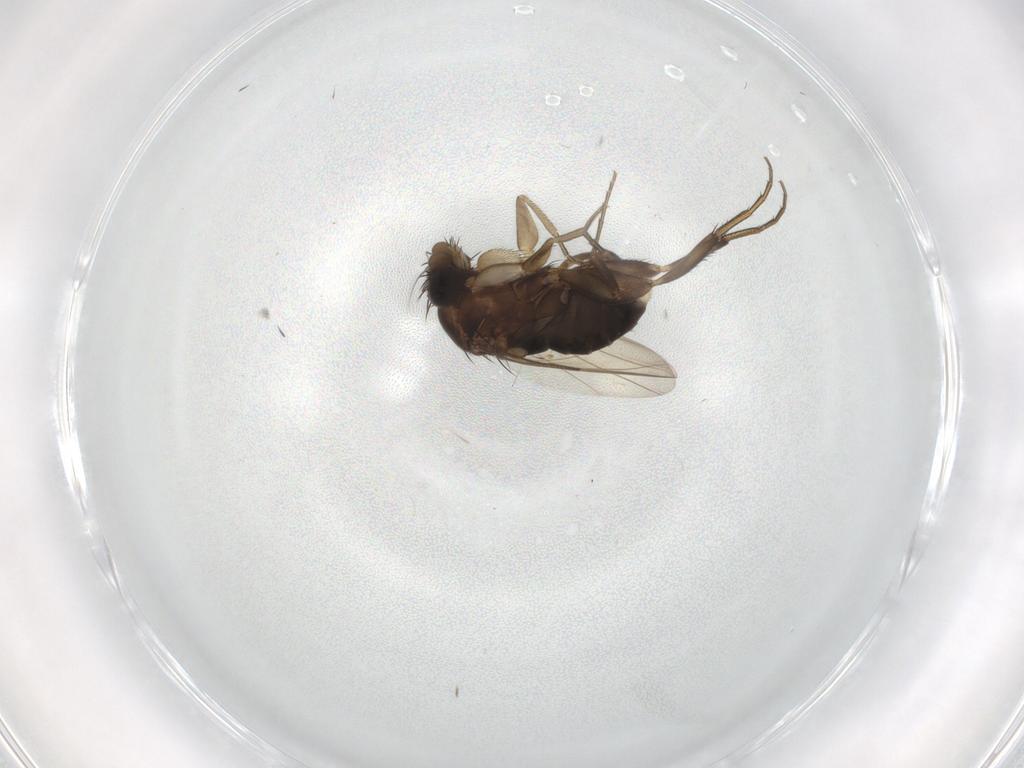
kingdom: Animalia
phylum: Arthropoda
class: Insecta
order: Diptera
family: Phoridae
